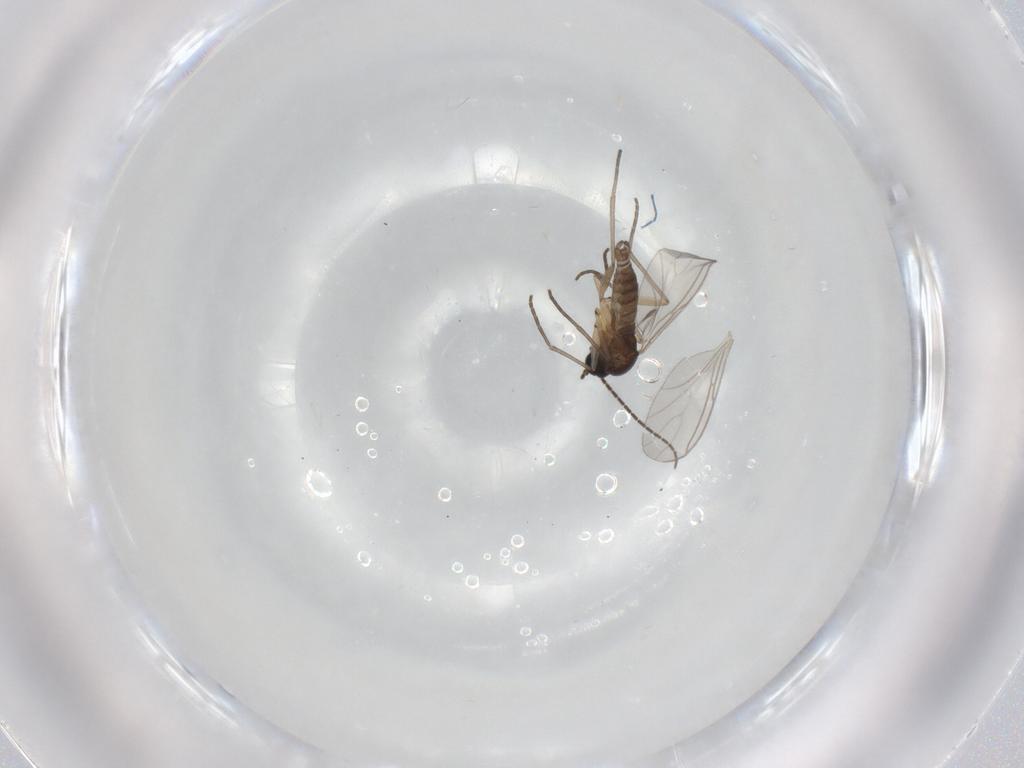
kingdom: Animalia
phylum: Arthropoda
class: Insecta
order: Diptera
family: Sciaridae
